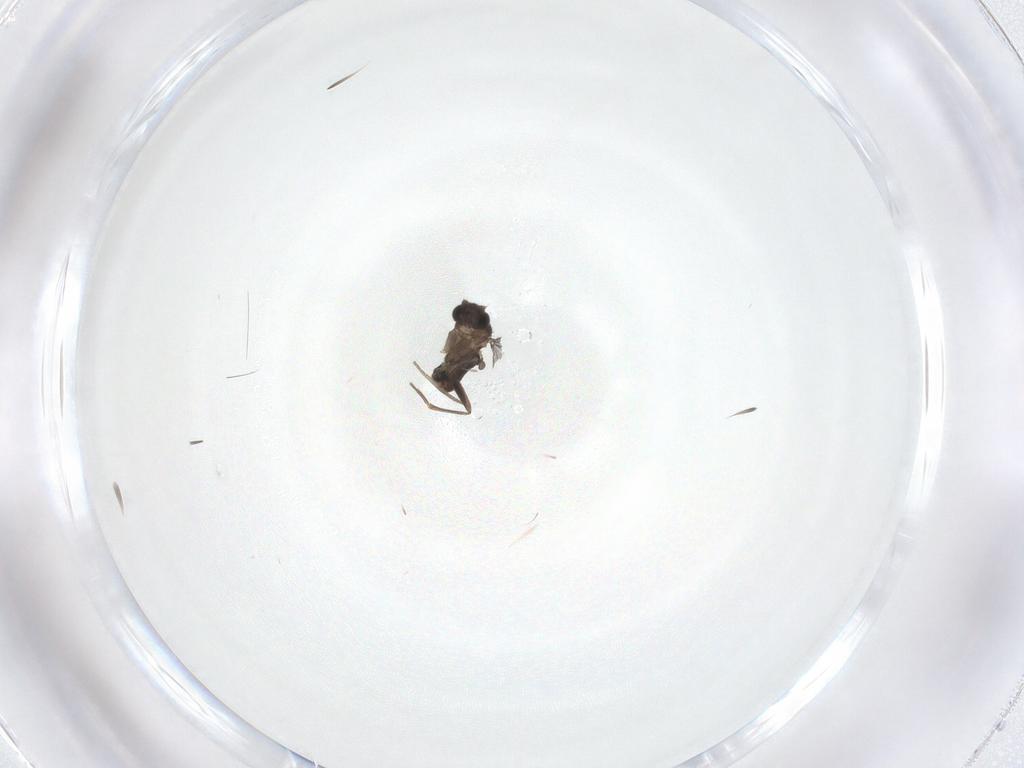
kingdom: Animalia
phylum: Arthropoda
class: Insecta
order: Diptera
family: Phoridae
